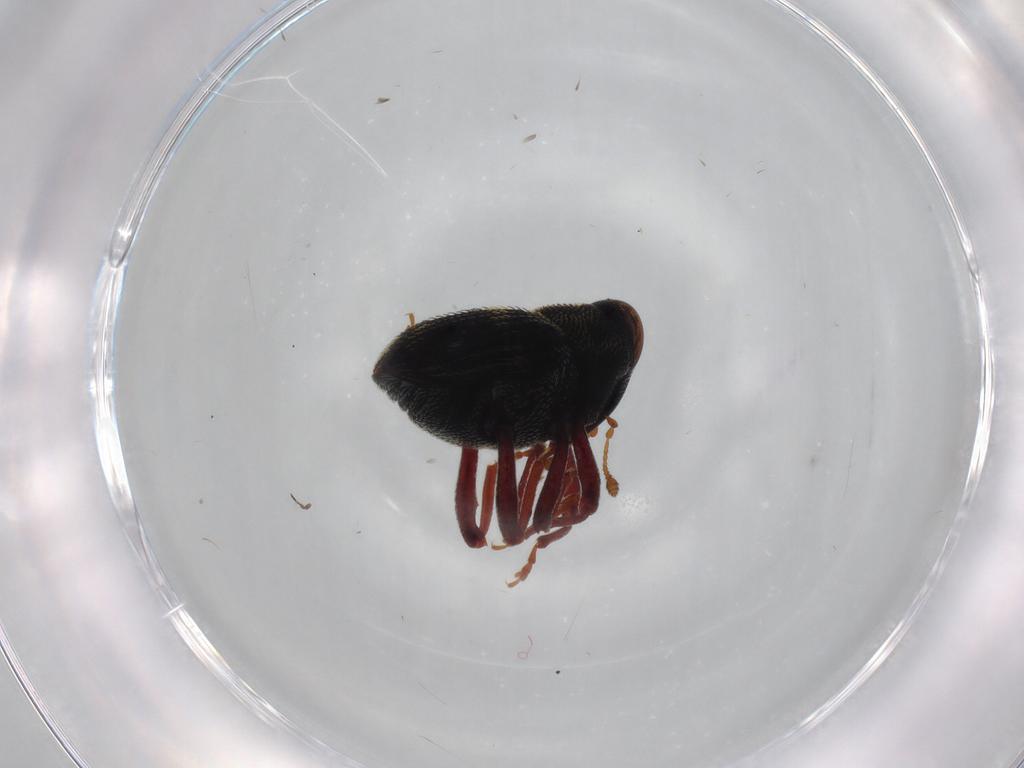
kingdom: Animalia
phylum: Arthropoda
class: Insecta
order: Coleoptera
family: Curculionidae
